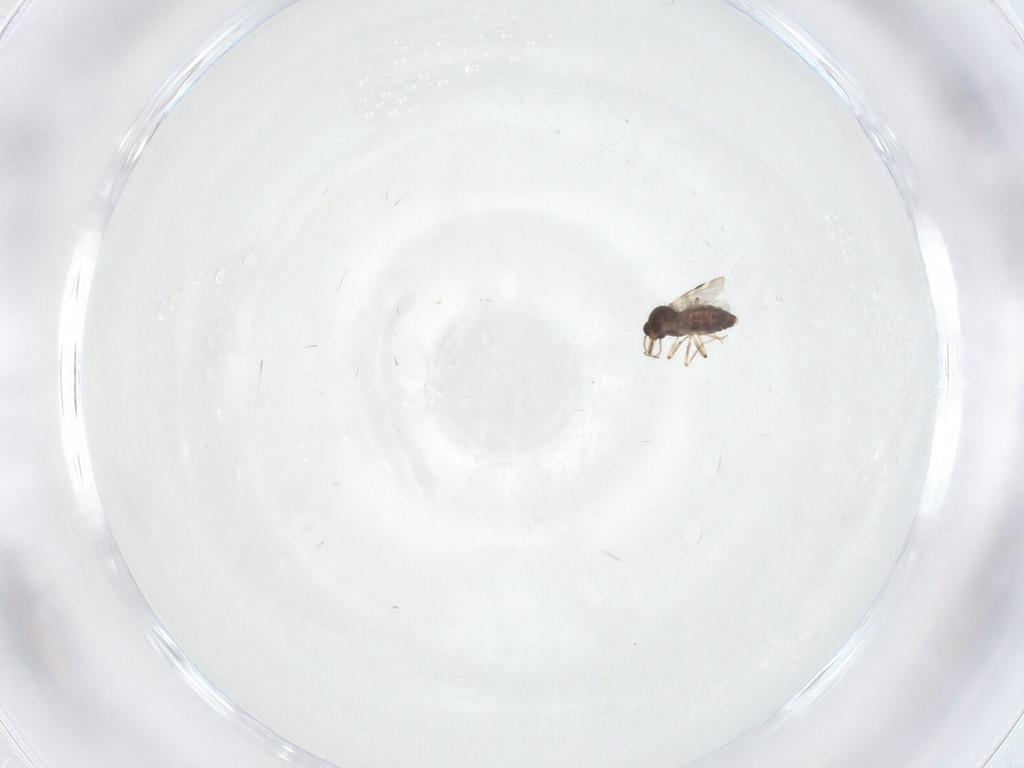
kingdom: Animalia
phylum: Arthropoda
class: Insecta
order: Diptera
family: Cecidomyiidae
